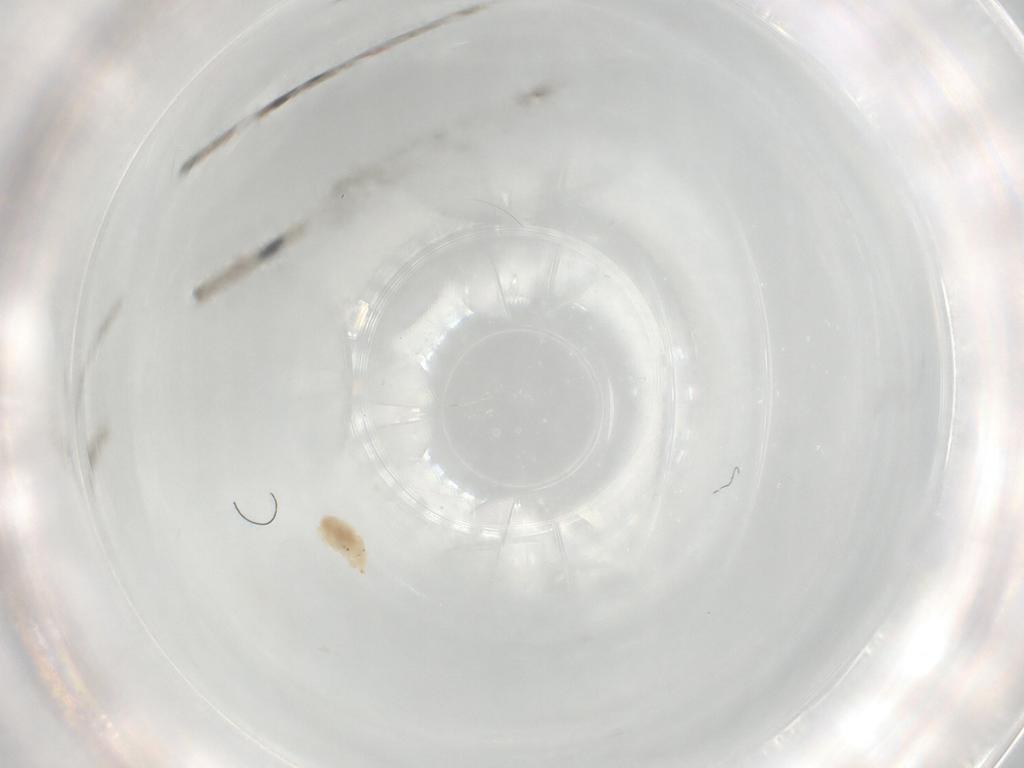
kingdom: Animalia
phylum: Arthropoda
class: Arachnida
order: Trombidiformes
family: Bdellidae
